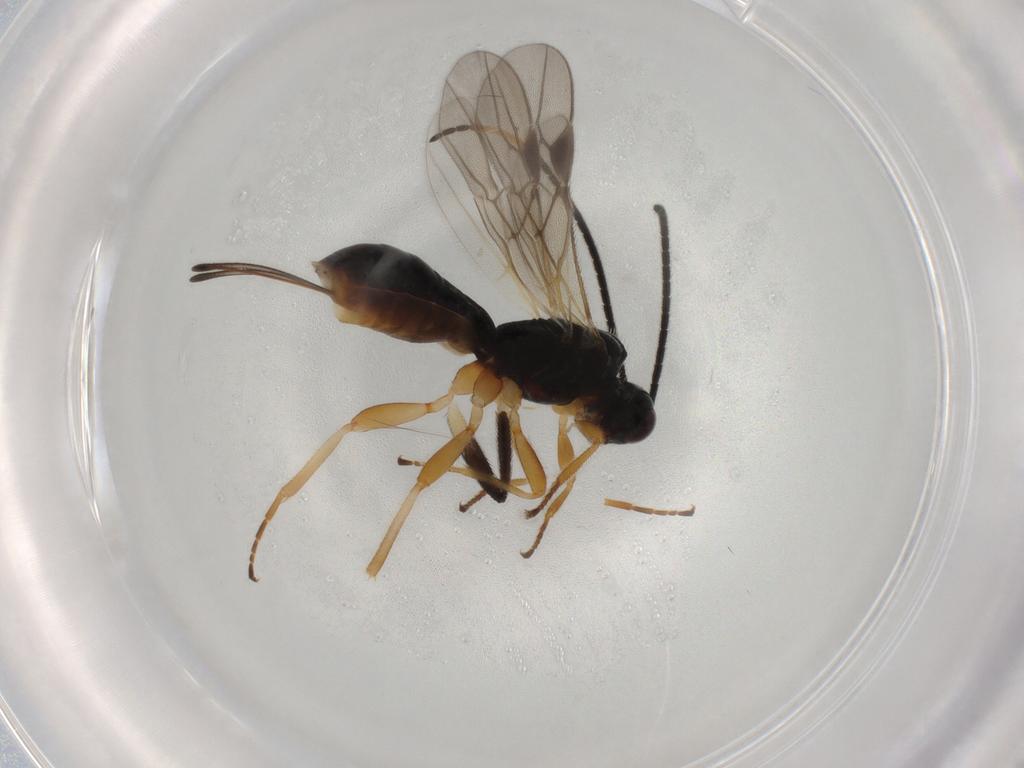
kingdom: Animalia
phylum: Arthropoda
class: Insecta
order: Hymenoptera
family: Braconidae
